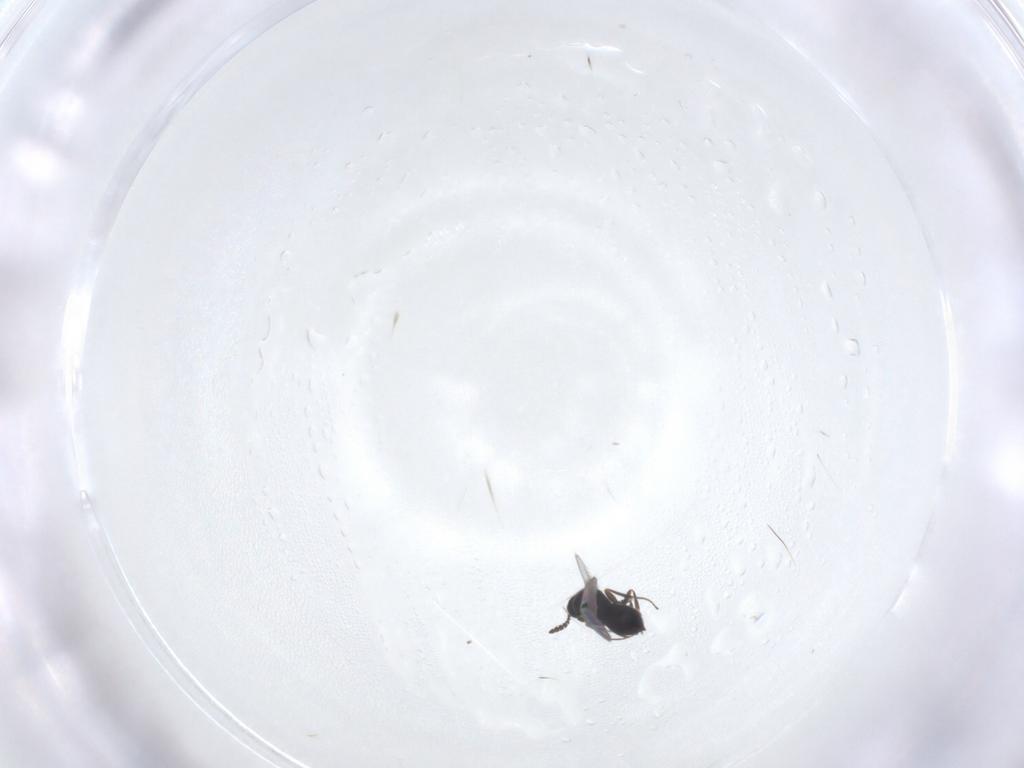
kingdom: Animalia
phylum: Arthropoda
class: Insecta
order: Hymenoptera
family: Scelionidae
